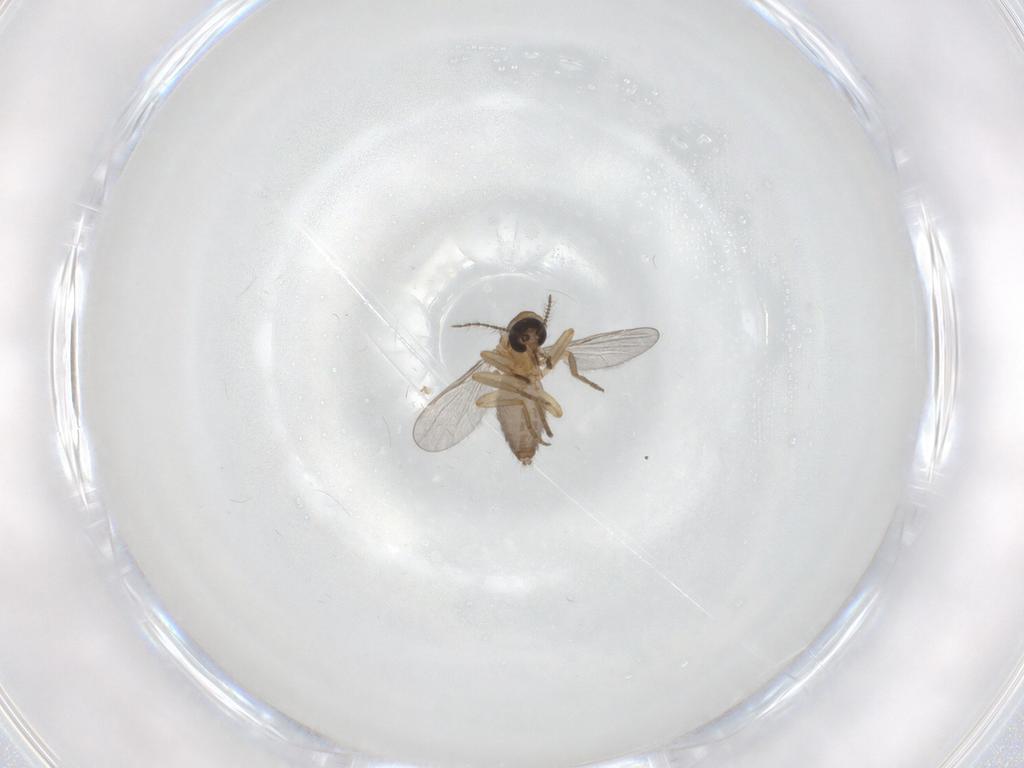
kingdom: Animalia
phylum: Arthropoda
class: Insecta
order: Diptera
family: Ceratopogonidae
